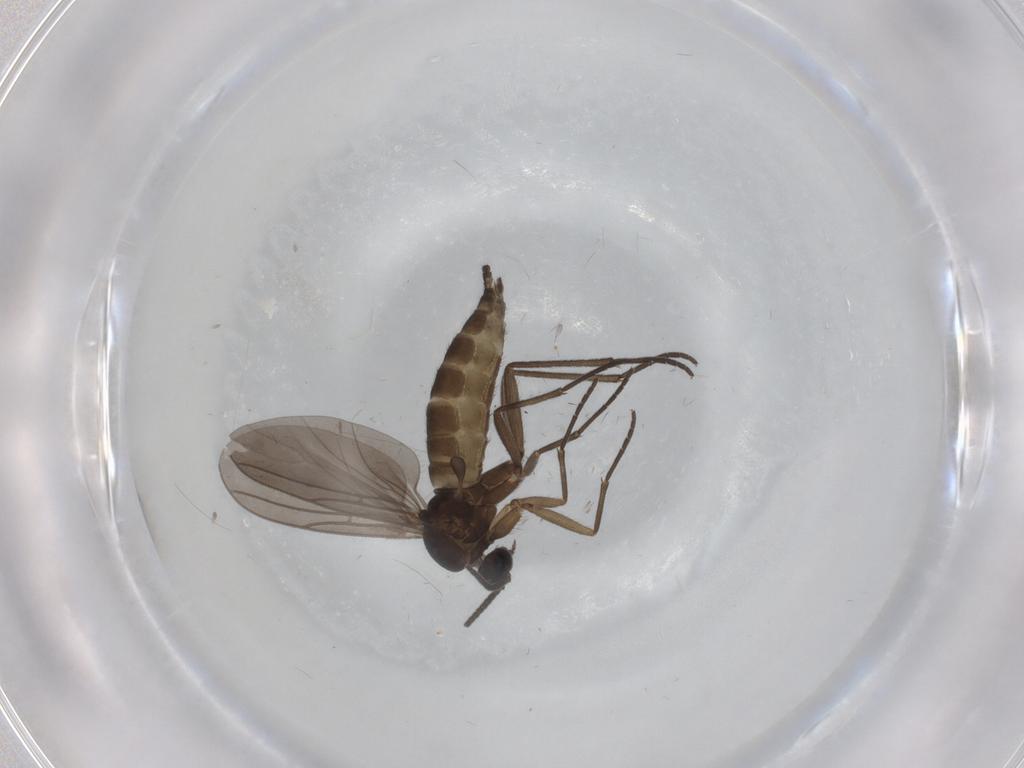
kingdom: Animalia
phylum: Arthropoda
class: Insecta
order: Diptera
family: Sciaridae
